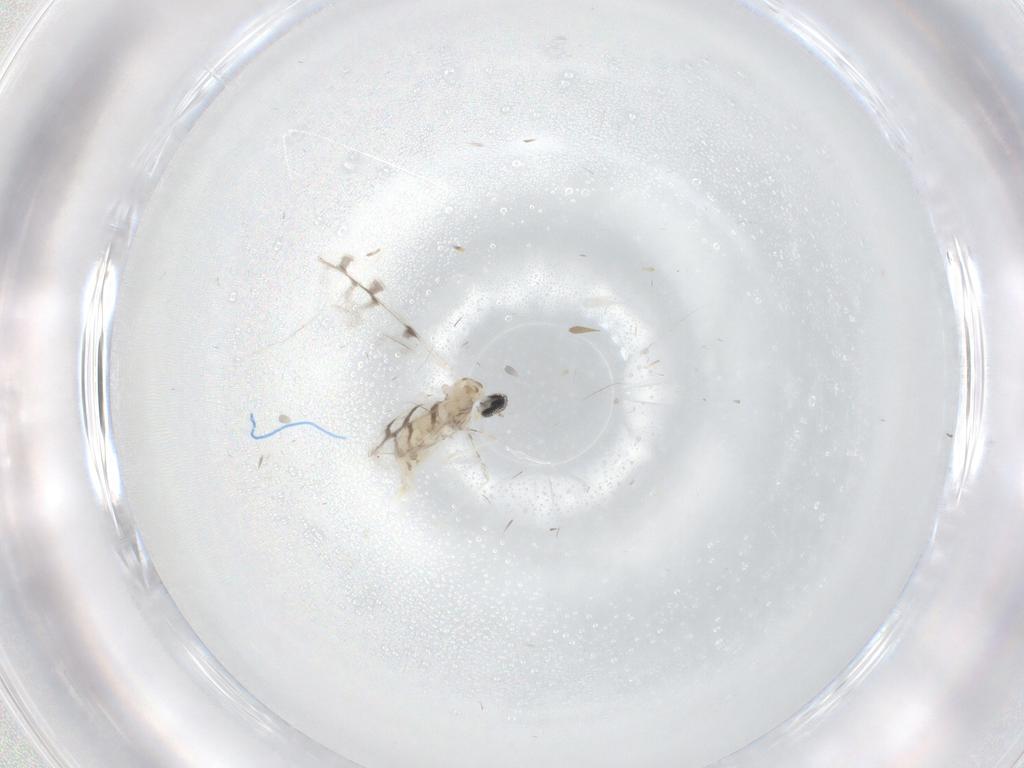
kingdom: Animalia
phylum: Arthropoda
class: Insecta
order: Diptera
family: Cecidomyiidae
